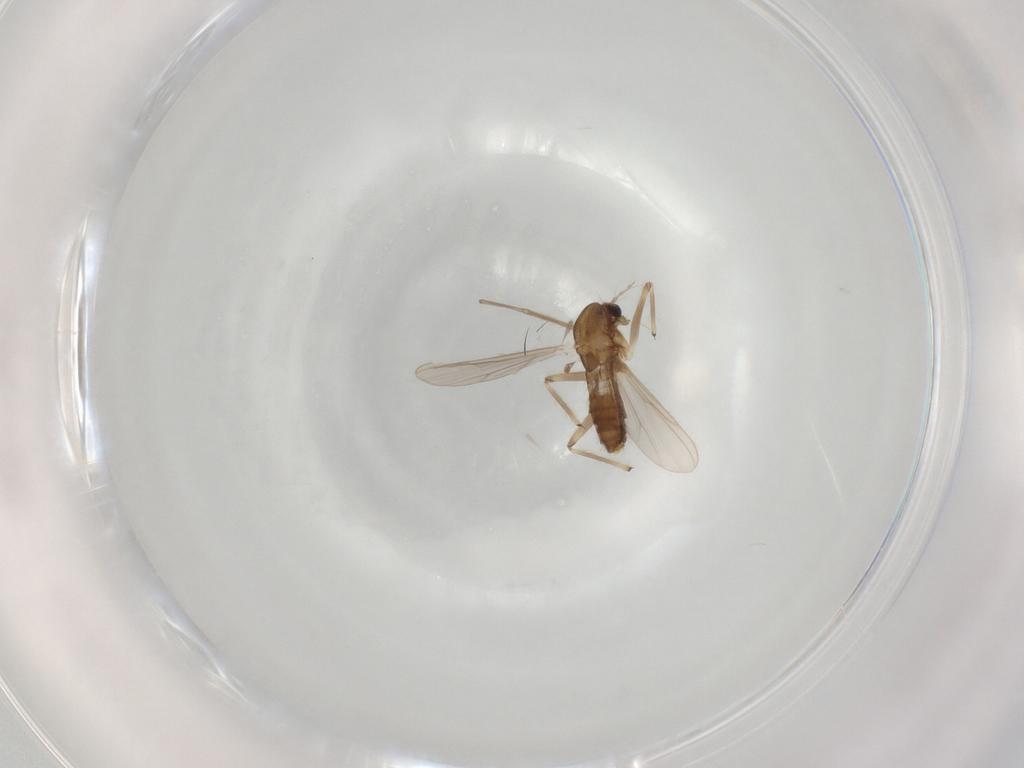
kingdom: Animalia
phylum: Arthropoda
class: Insecta
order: Diptera
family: Chironomidae
